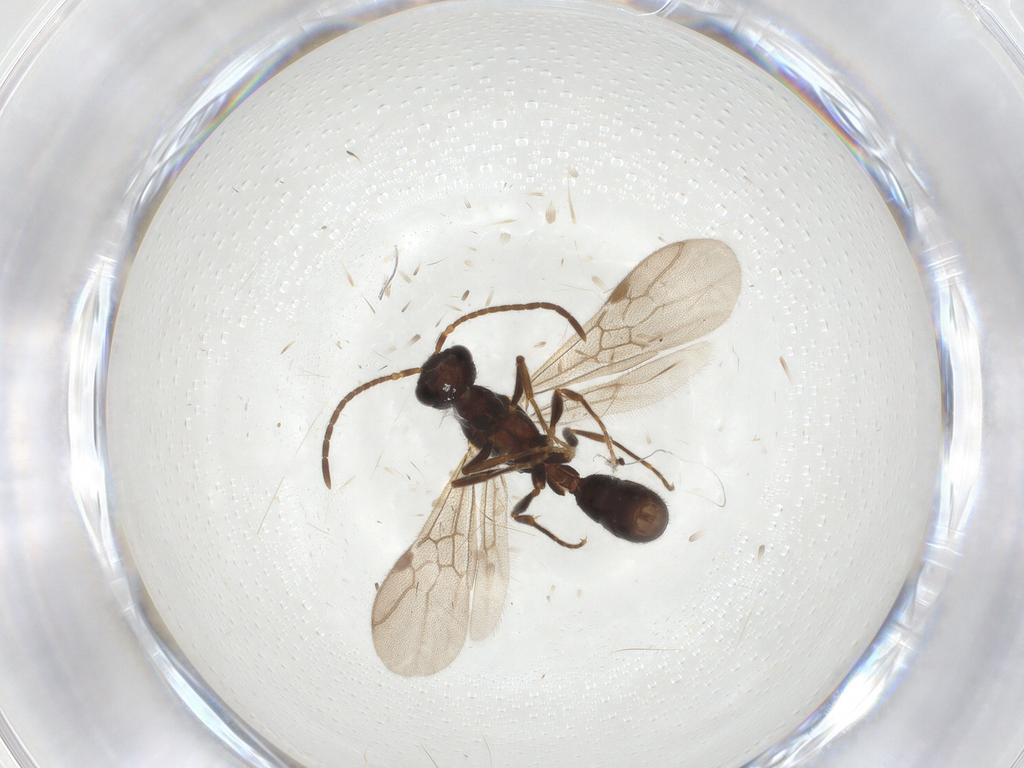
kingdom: Animalia
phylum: Arthropoda
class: Insecta
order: Hymenoptera
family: Formicidae
